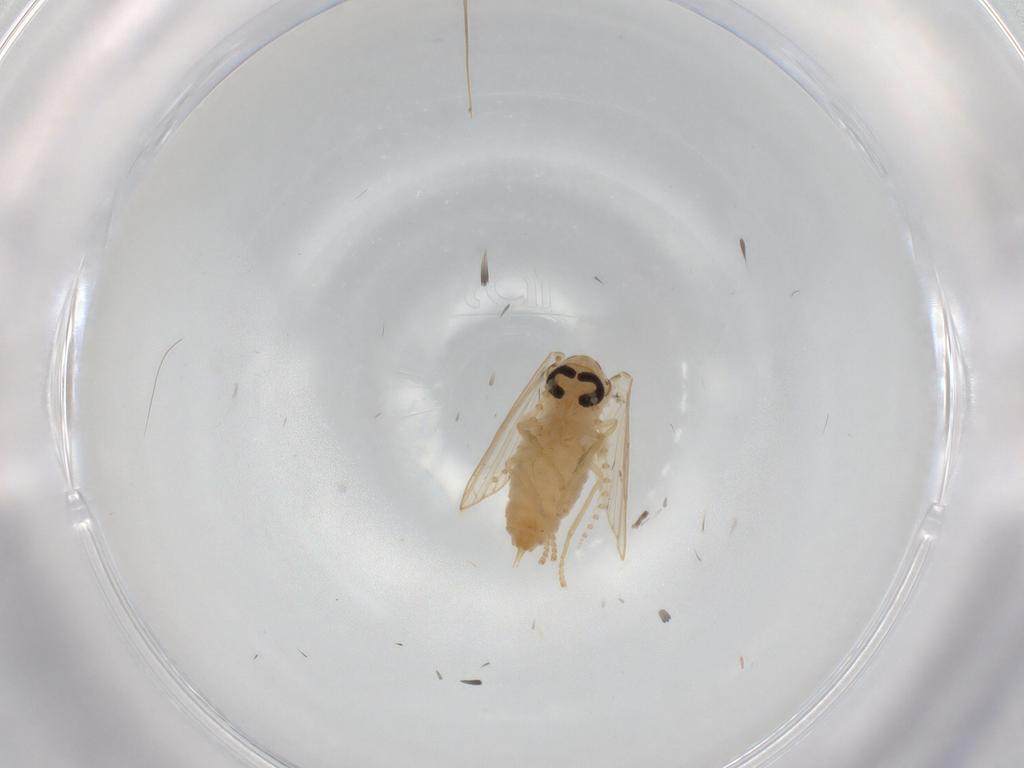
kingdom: Animalia
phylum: Arthropoda
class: Insecta
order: Diptera
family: Psychodidae
